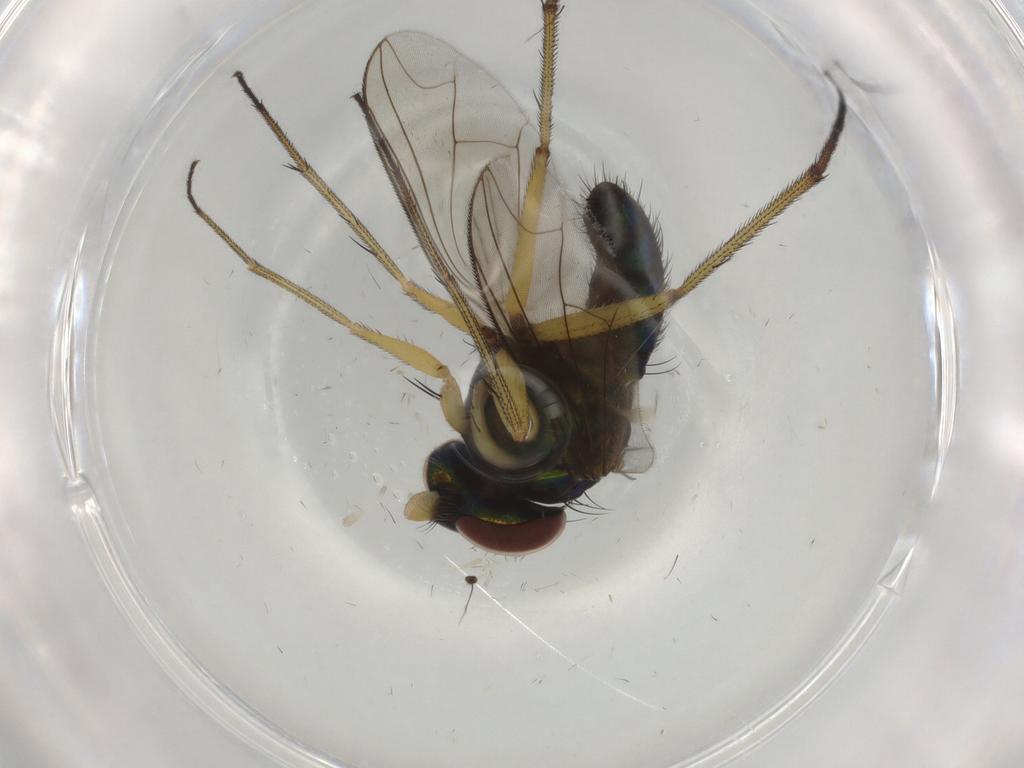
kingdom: Animalia
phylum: Arthropoda
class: Insecta
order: Diptera
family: Dolichopodidae
